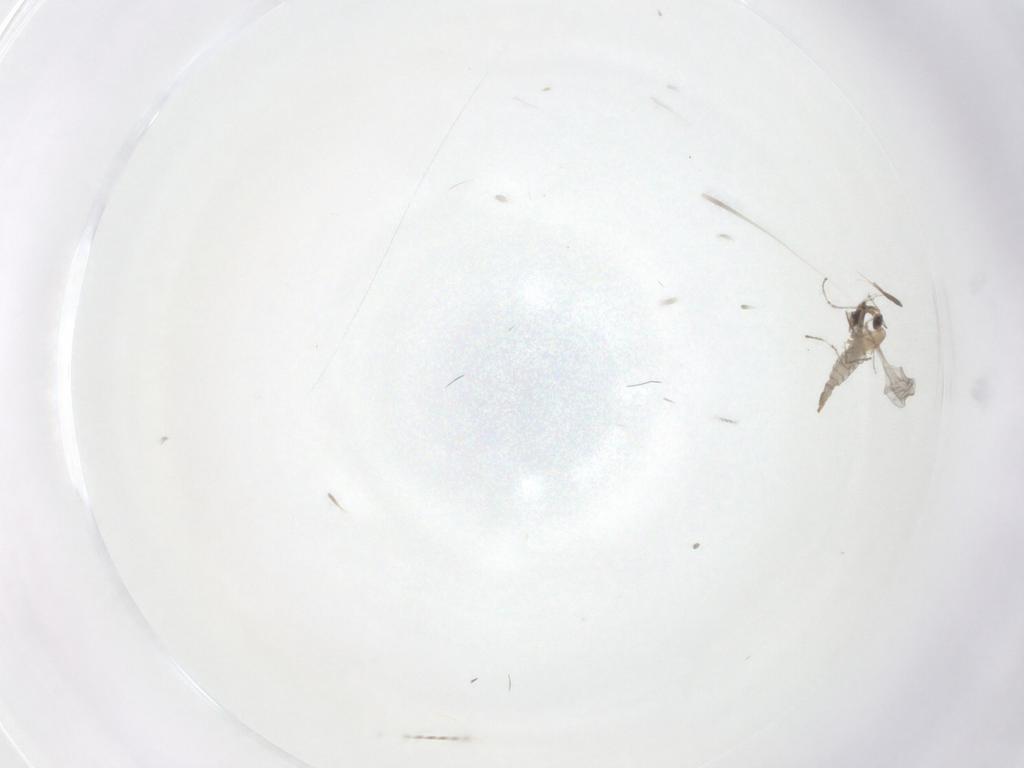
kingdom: Animalia
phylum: Arthropoda
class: Insecta
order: Diptera
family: Cecidomyiidae
